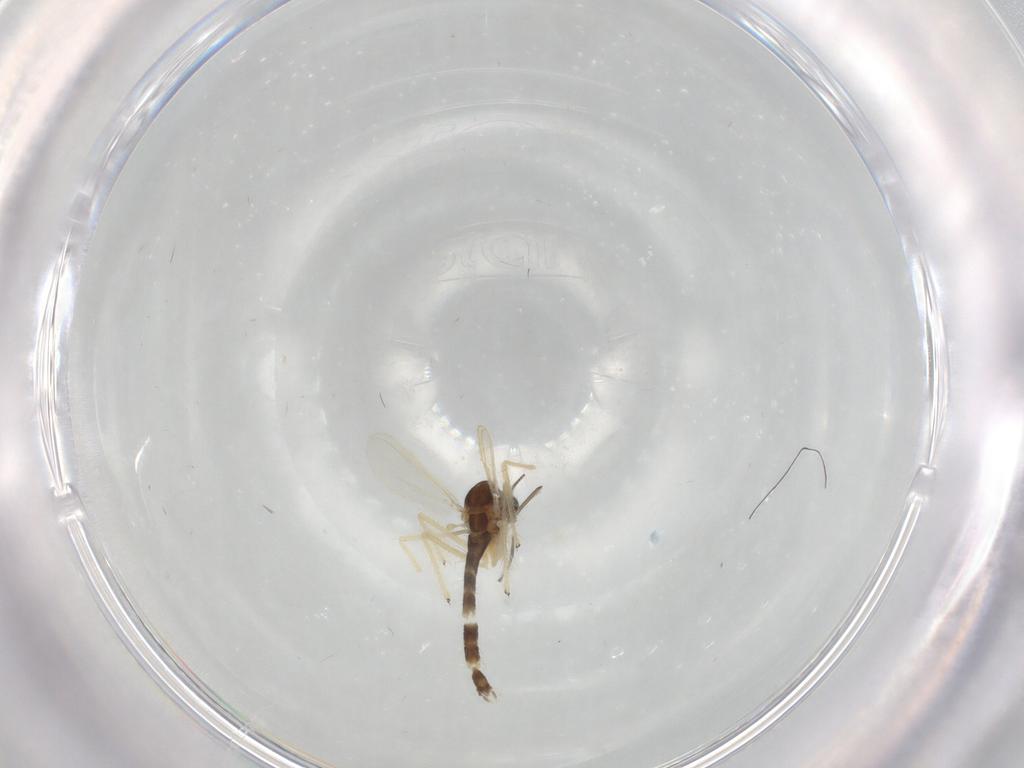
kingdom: Animalia
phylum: Arthropoda
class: Insecta
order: Diptera
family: Chironomidae
